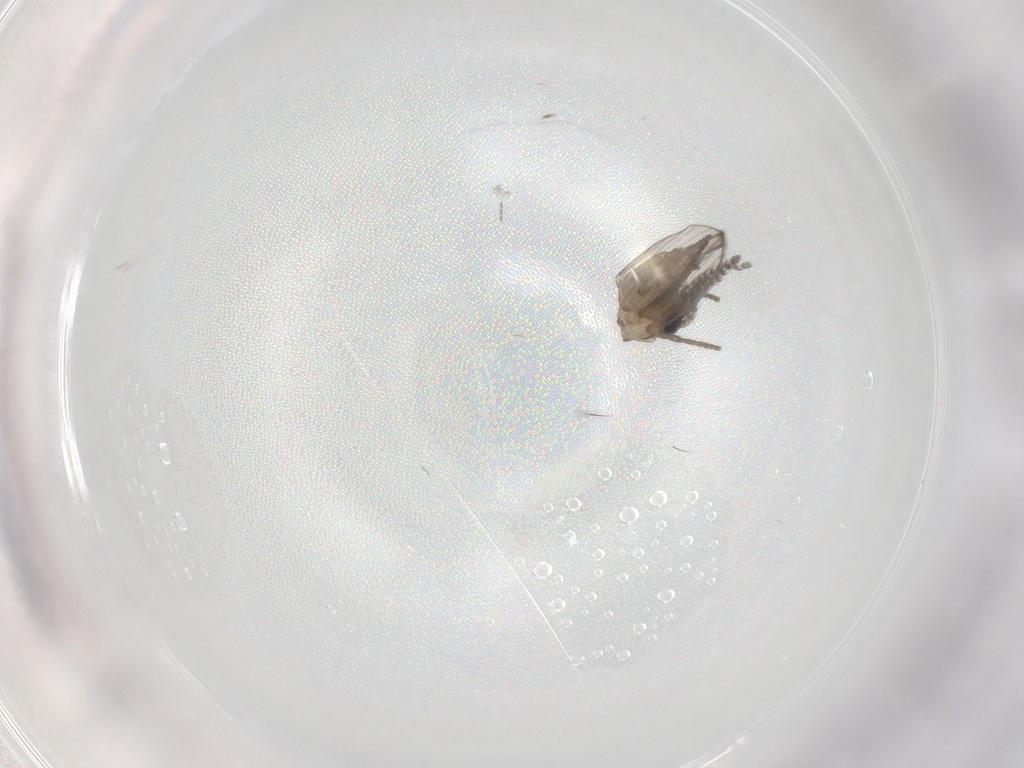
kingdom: Animalia
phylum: Arthropoda
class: Insecta
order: Diptera
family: Psychodidae
